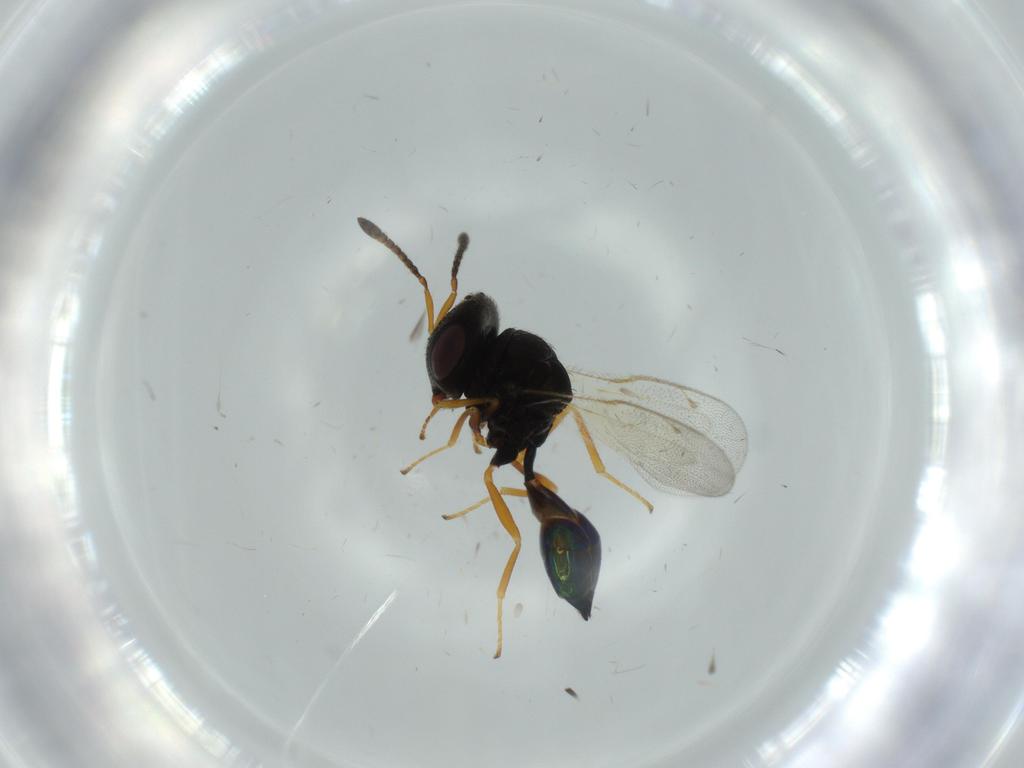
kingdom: Animalia
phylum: Arthropoda
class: Insecta
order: Hymenoptera
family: Pteromalidae
